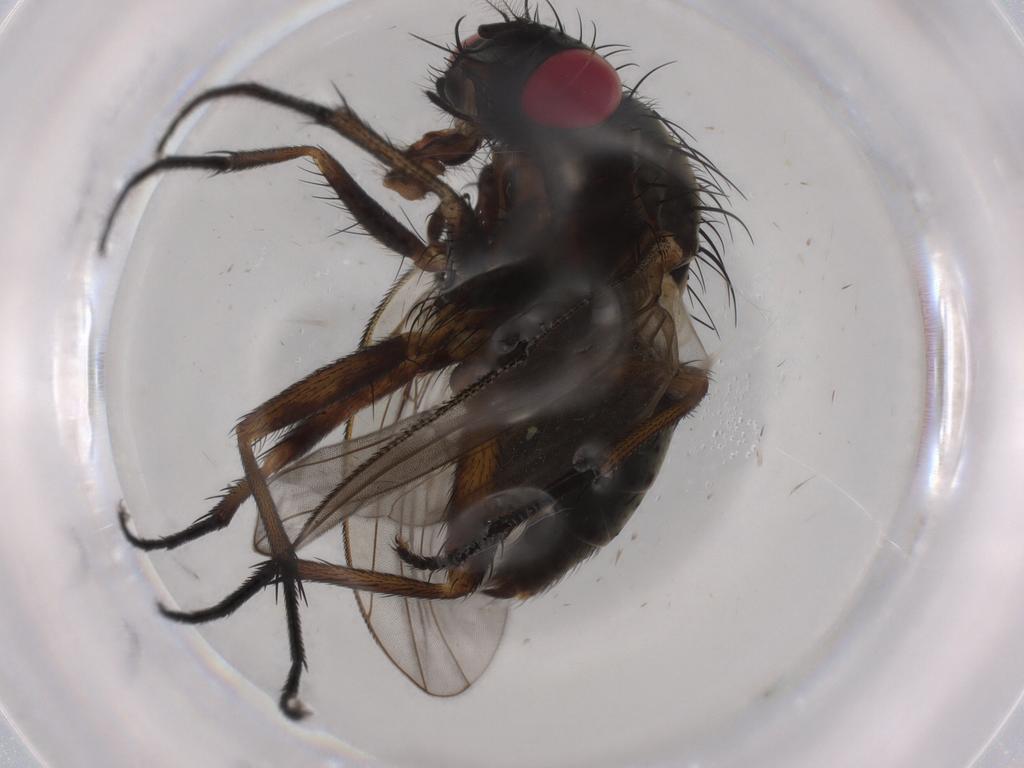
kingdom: Animalia
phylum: Arthropoda
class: Insecta
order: Diptera
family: Muscidae
